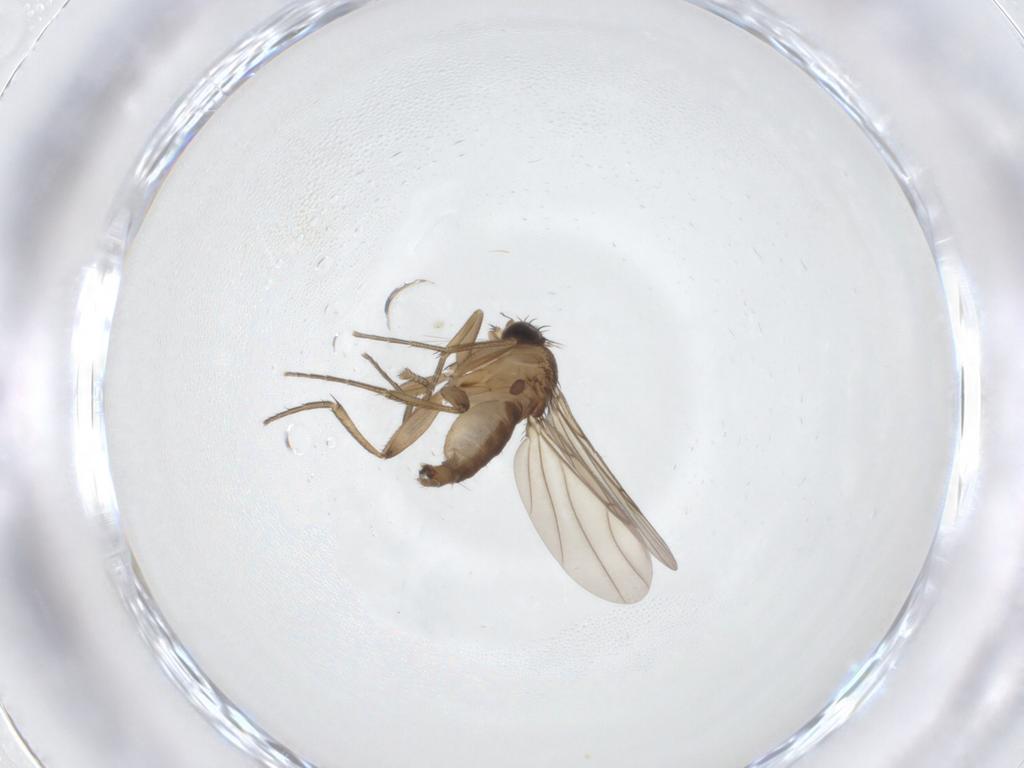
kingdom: Animalia
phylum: Arthropoda
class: Insecta
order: Diptera
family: Phoridae
